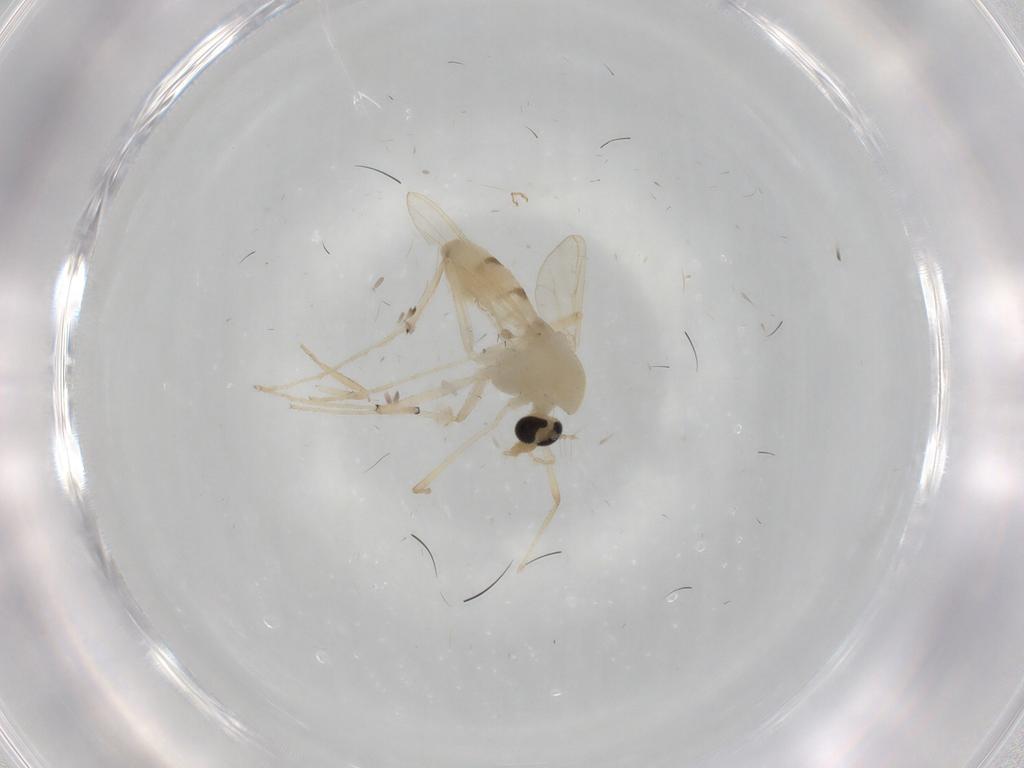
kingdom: Animalia
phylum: Arthropoda
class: Insecta
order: Diptera
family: Chironomidae
